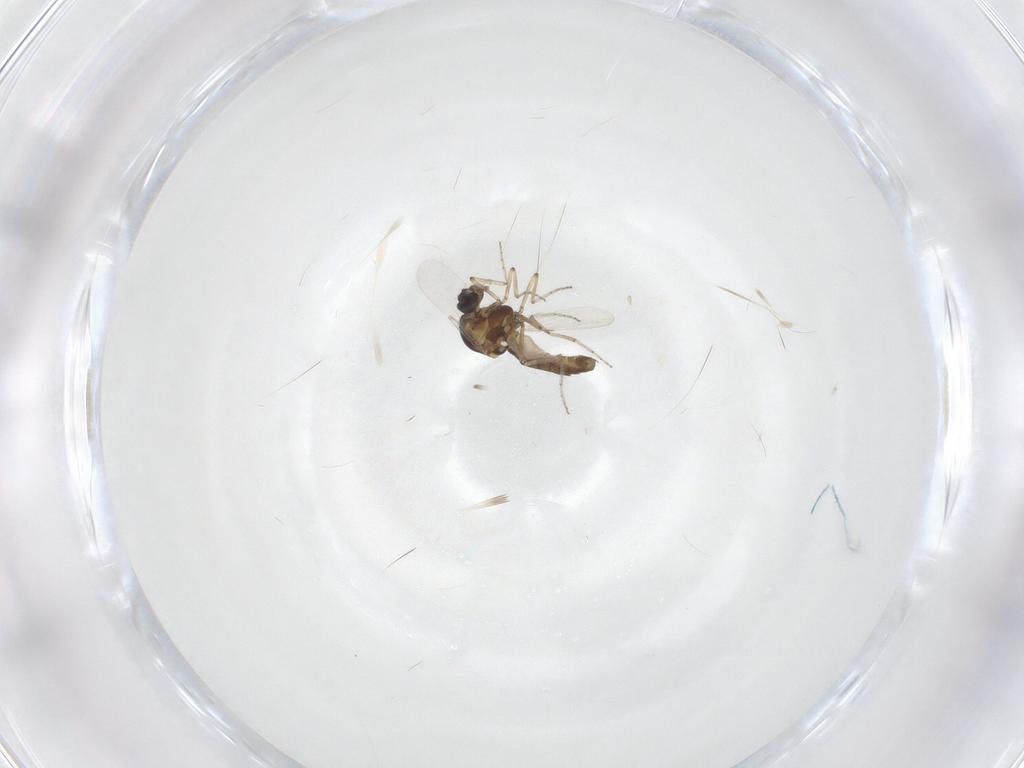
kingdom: Animalia
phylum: Arthropoda
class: Insecta
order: Diptera
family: Ceratopogonidae
